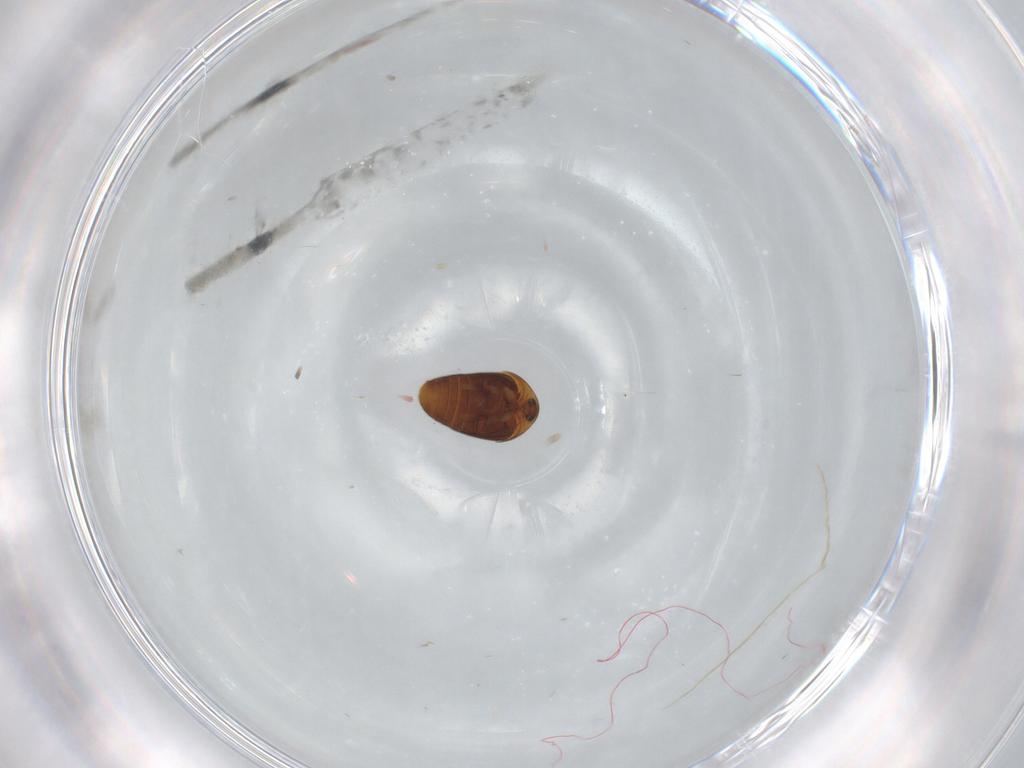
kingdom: Animalia
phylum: Arthropoda
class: Insecta
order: Coleoptera
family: Corylophidae
